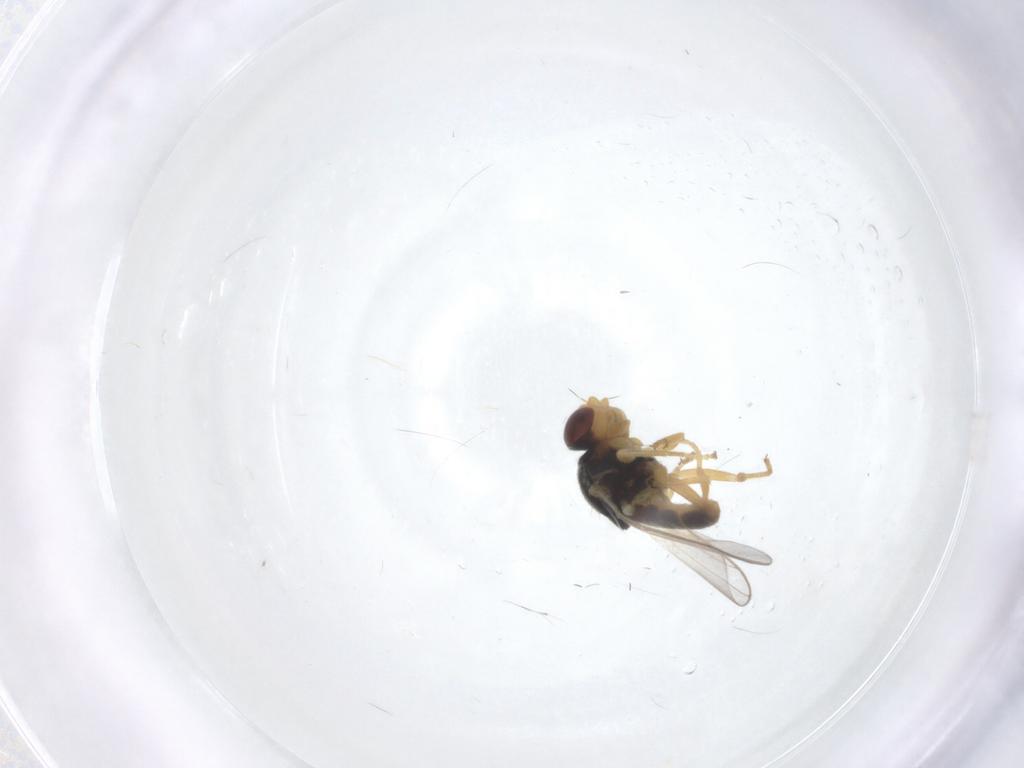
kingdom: Animalia
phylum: Arthropoda
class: Insecta
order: Diptera
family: Chloropidae
